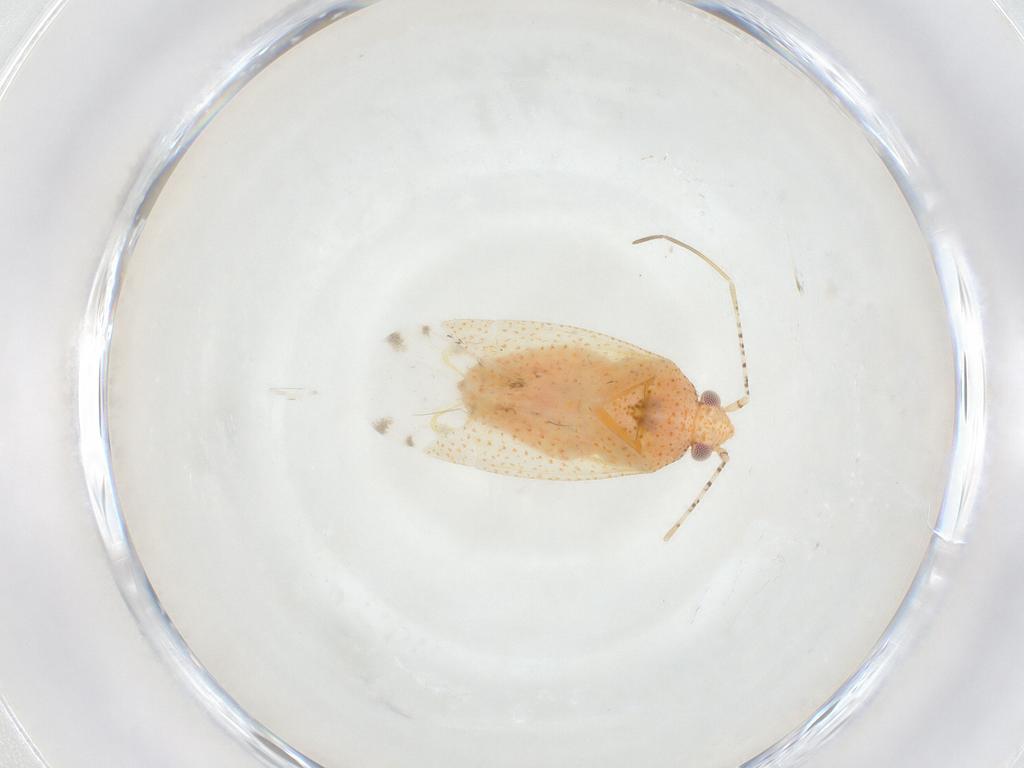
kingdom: Animalia
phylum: Arthropoda
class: Insecta
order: Hemiptera
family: Miridae
